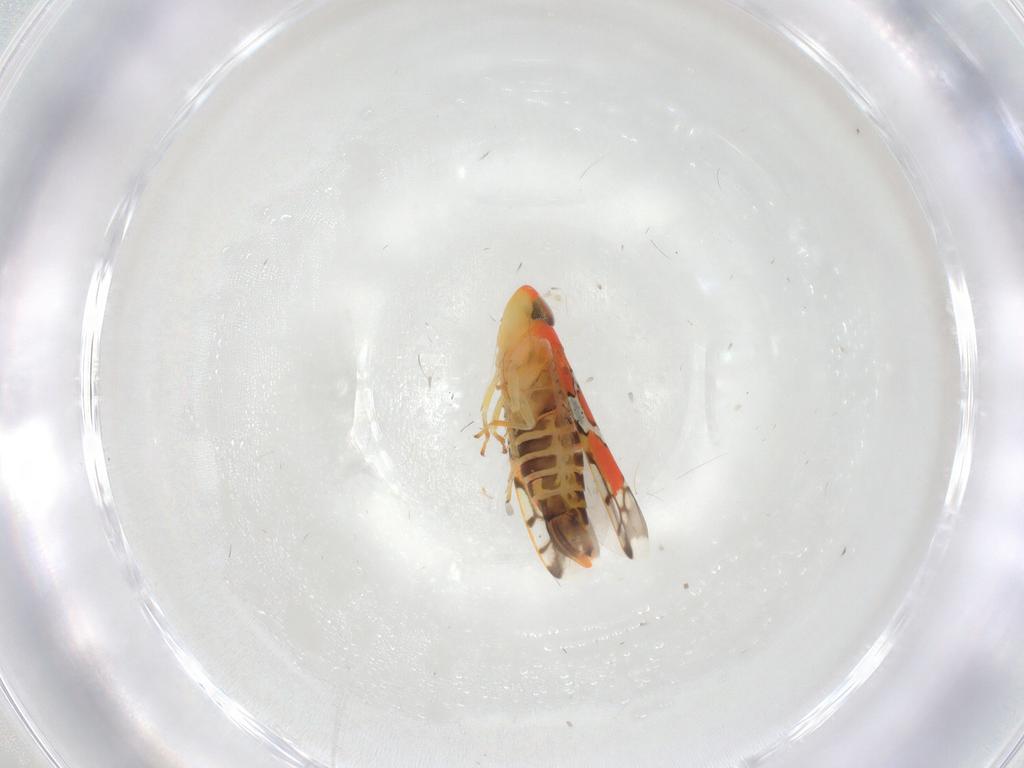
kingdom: Animalia
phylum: Arthropoda
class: Insecta
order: Hemiptera
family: Cicadellidae
